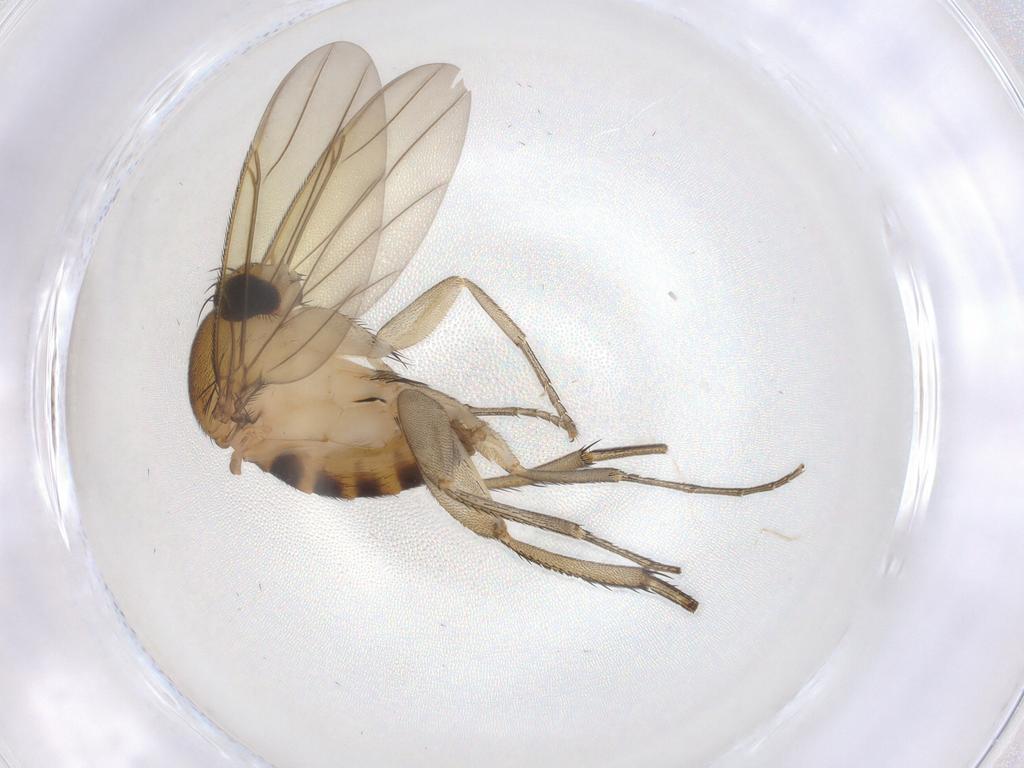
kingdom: Animalia
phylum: Arthropoda
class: Insecta
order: Diptera
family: Phoridae
